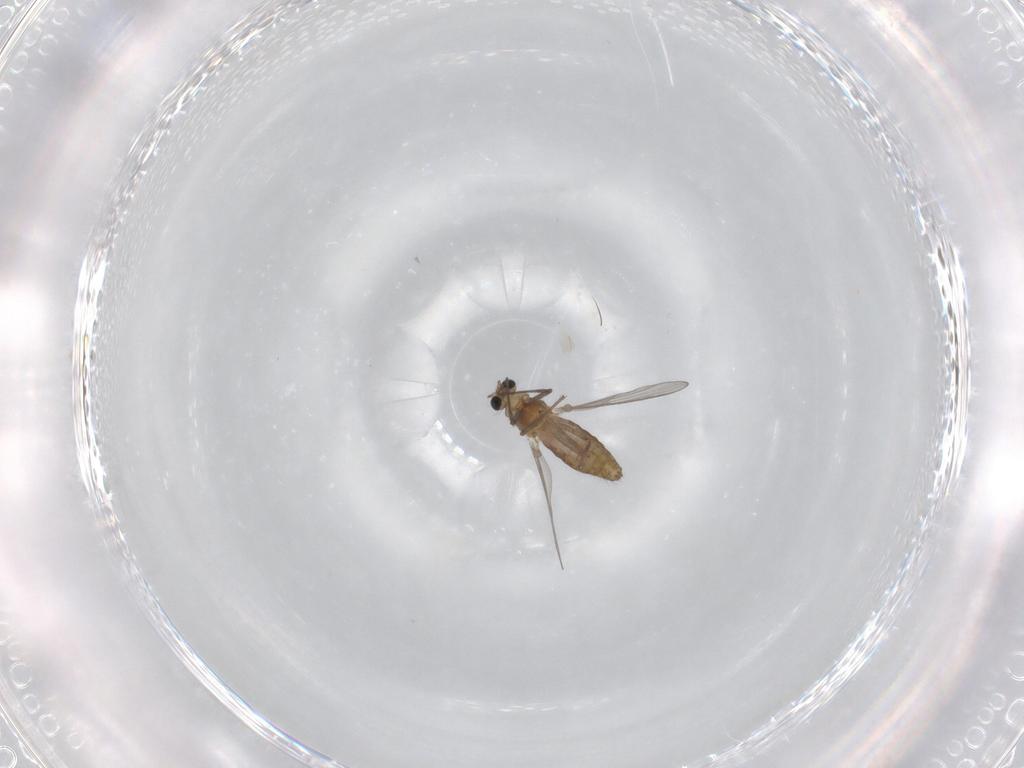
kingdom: Animalia
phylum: Arthropoda
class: Insecta
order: Diptera
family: Chironomidae
